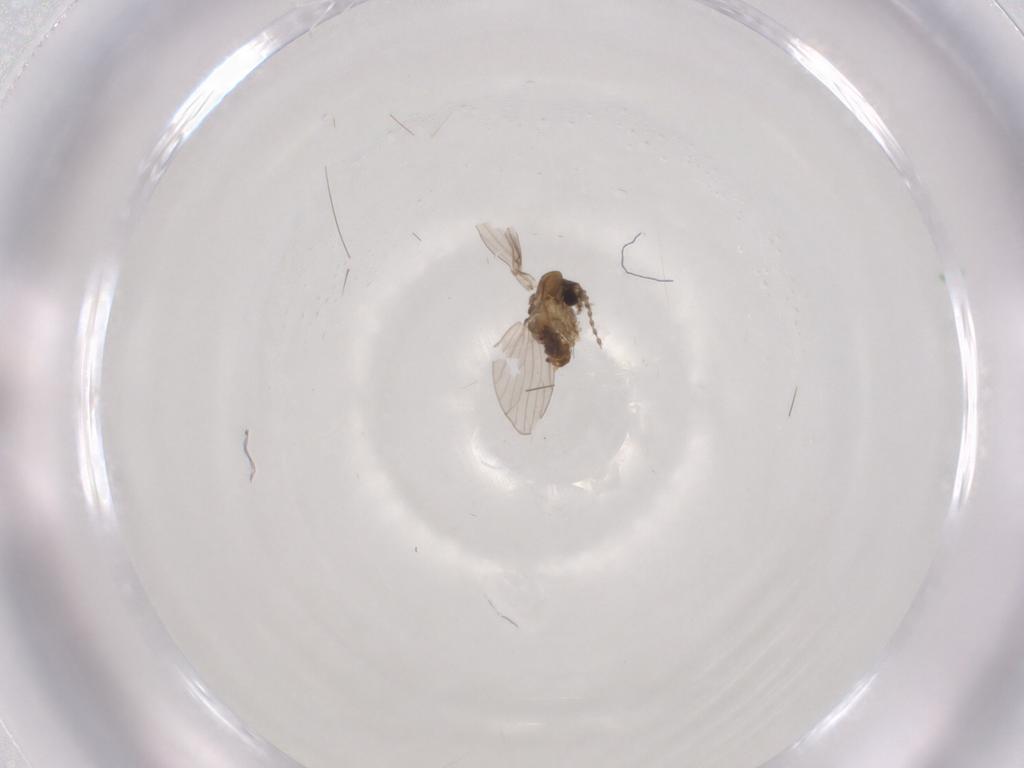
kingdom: Animalia
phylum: Arthropoda
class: Insecta
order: Diptera
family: Psychodidae
